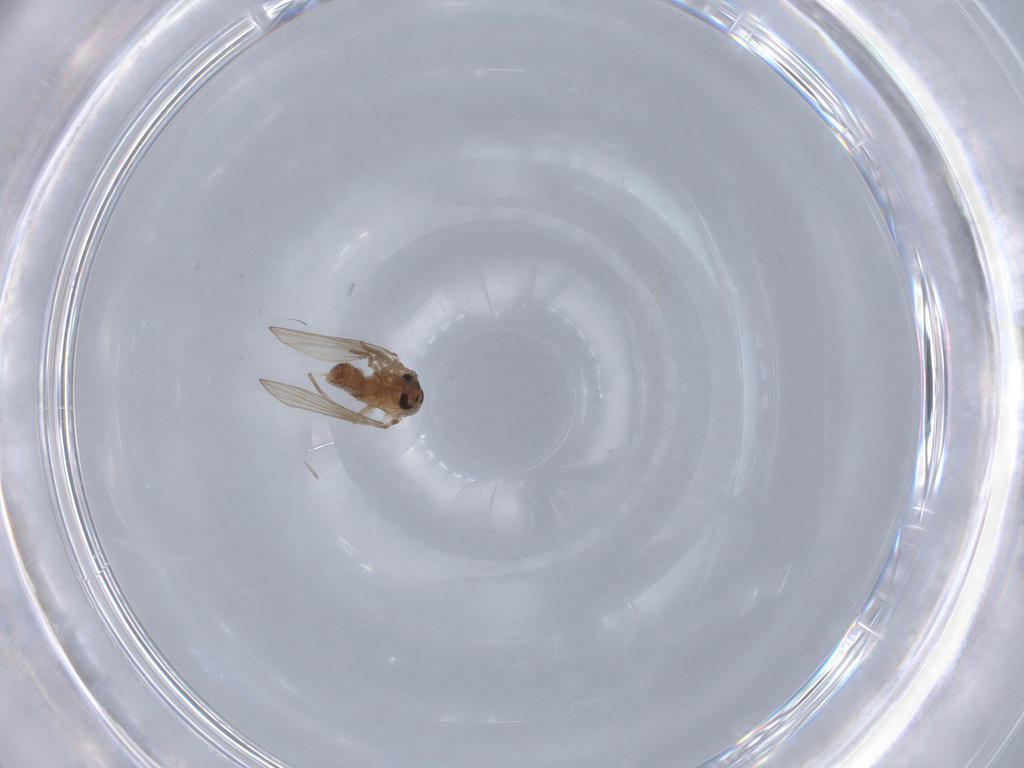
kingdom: Animalia
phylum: Arthropoda
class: Insecta
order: Diptera
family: Psychodidae
